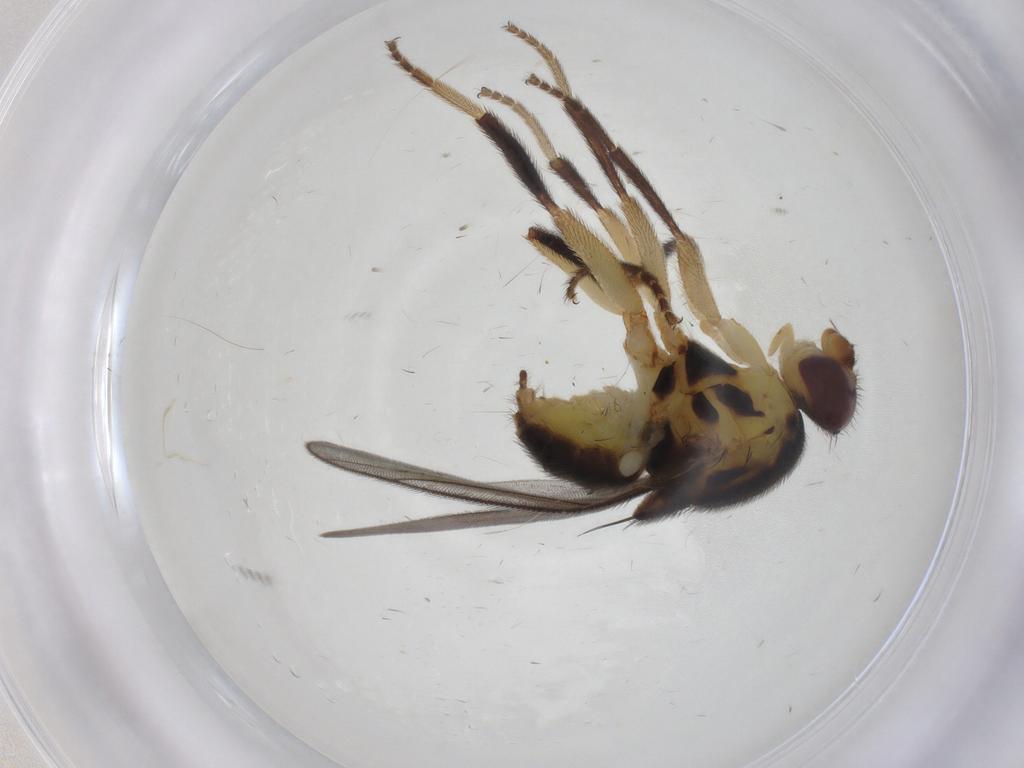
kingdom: Animalia
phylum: Arthropoda
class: Insecta
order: Diptera
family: Chloropidae
